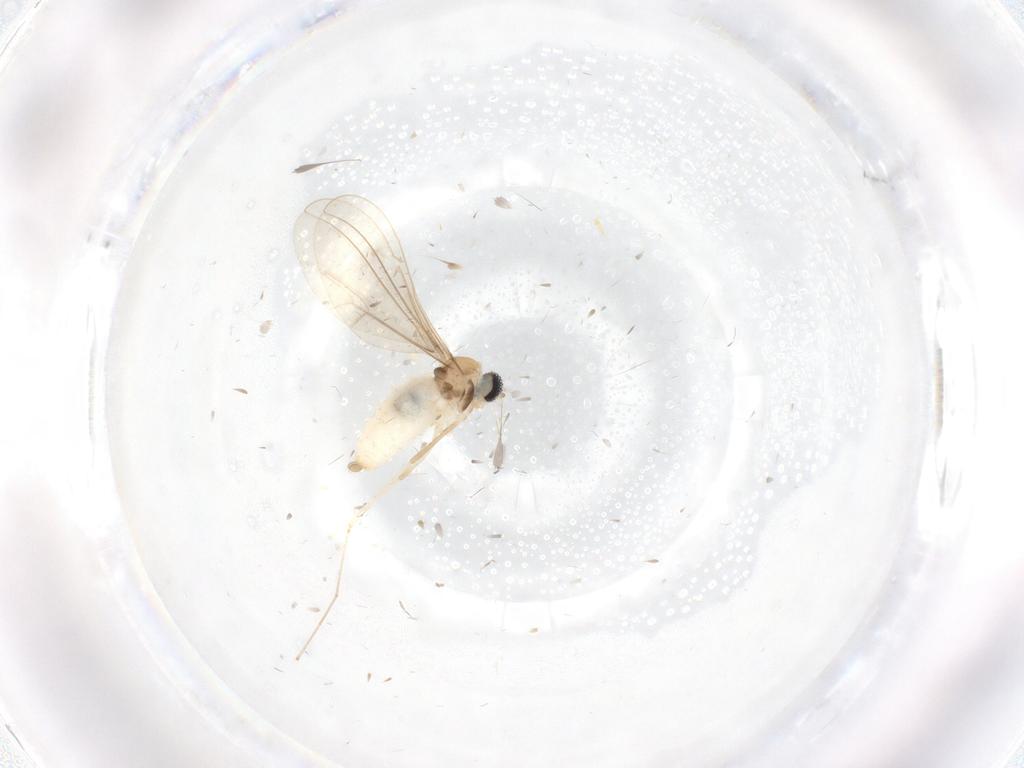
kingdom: Animalia
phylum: Arthropoda
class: Insecta
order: Diptera
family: Cecidomyiidae
